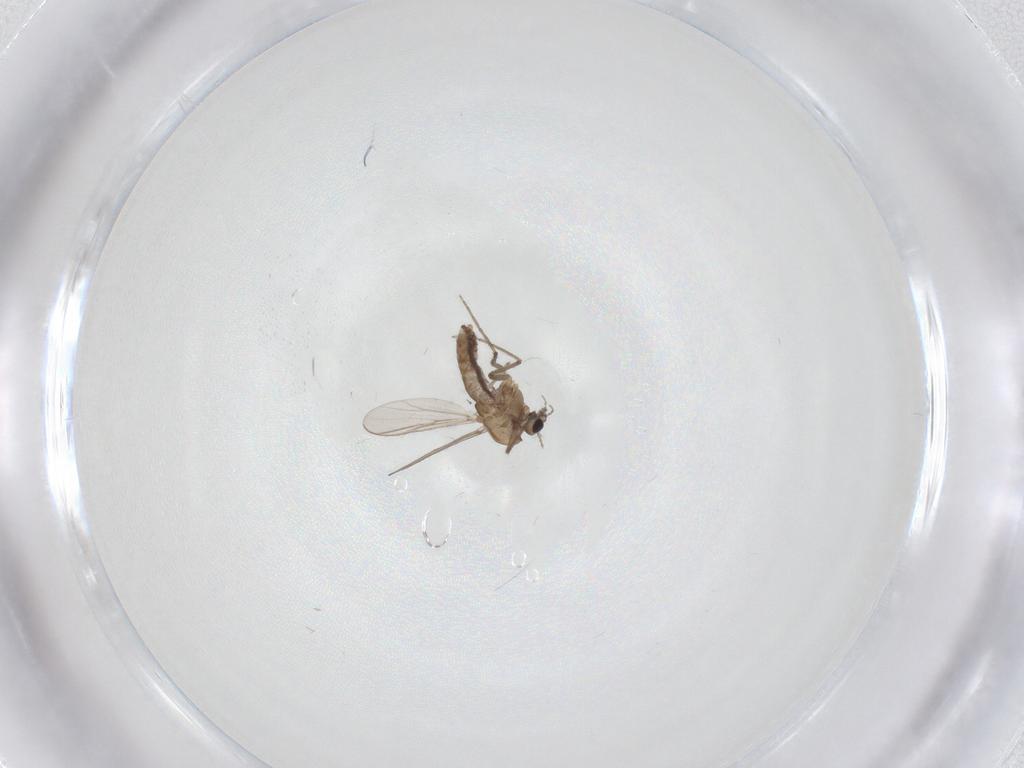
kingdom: Animalia
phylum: Arthropoda
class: Insecta
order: Diptera
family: Chironomidae
